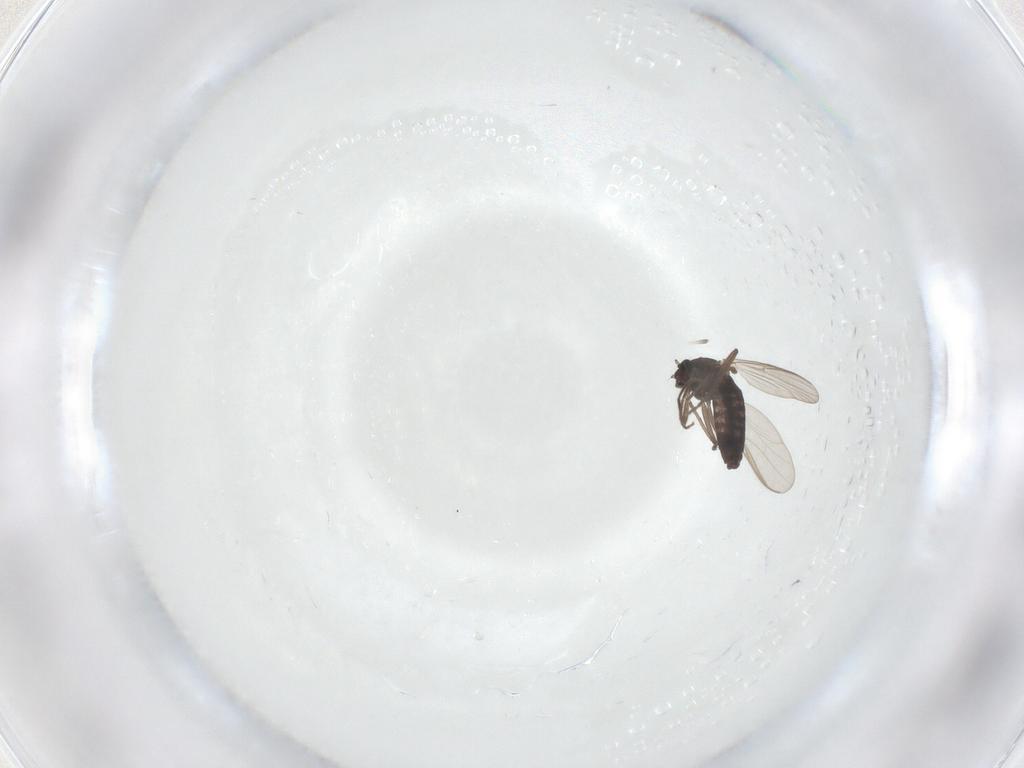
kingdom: Animalia
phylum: Arthropoda
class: Insecta
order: Diptera
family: Chironomidae
